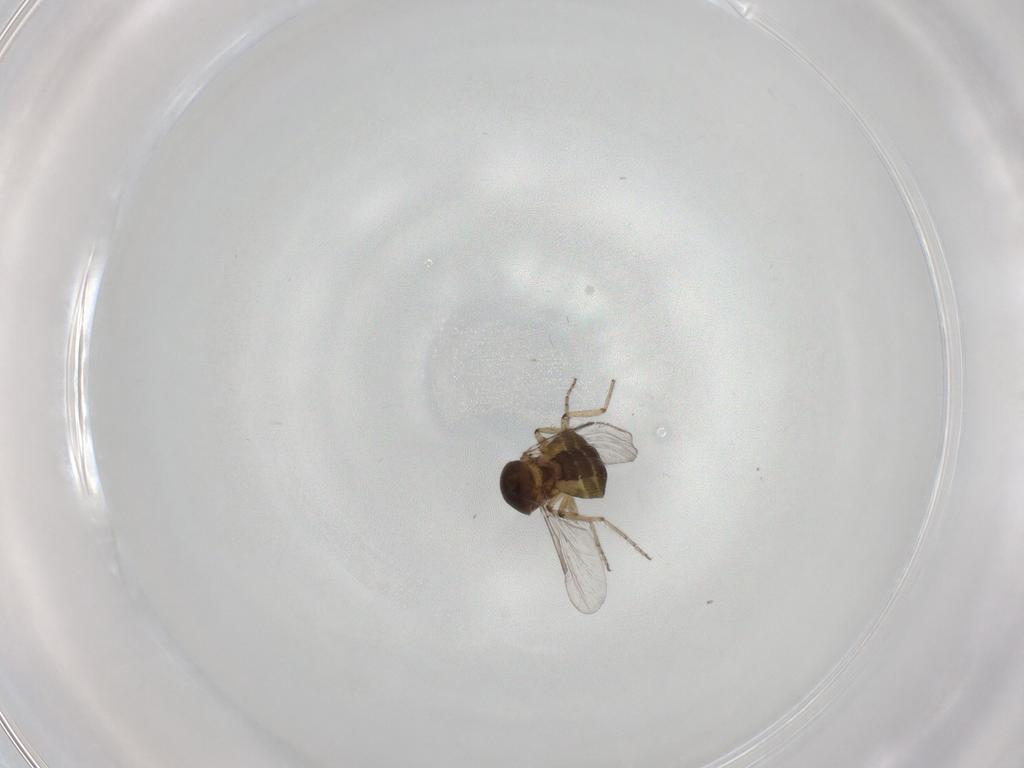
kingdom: Animalia
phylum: Arthropoda
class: Insecta
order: Diptera
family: Ceratopogonidae
